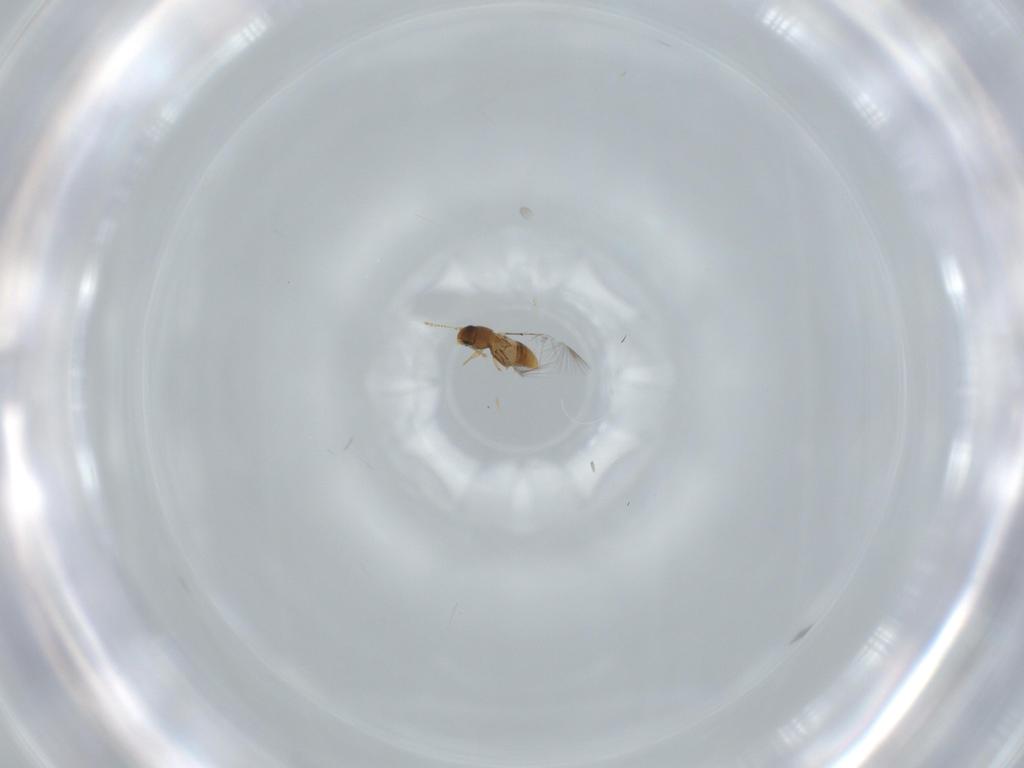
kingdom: Animalia
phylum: Arthropoda
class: Insecta
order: Coleoptera
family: Ptiliidae
